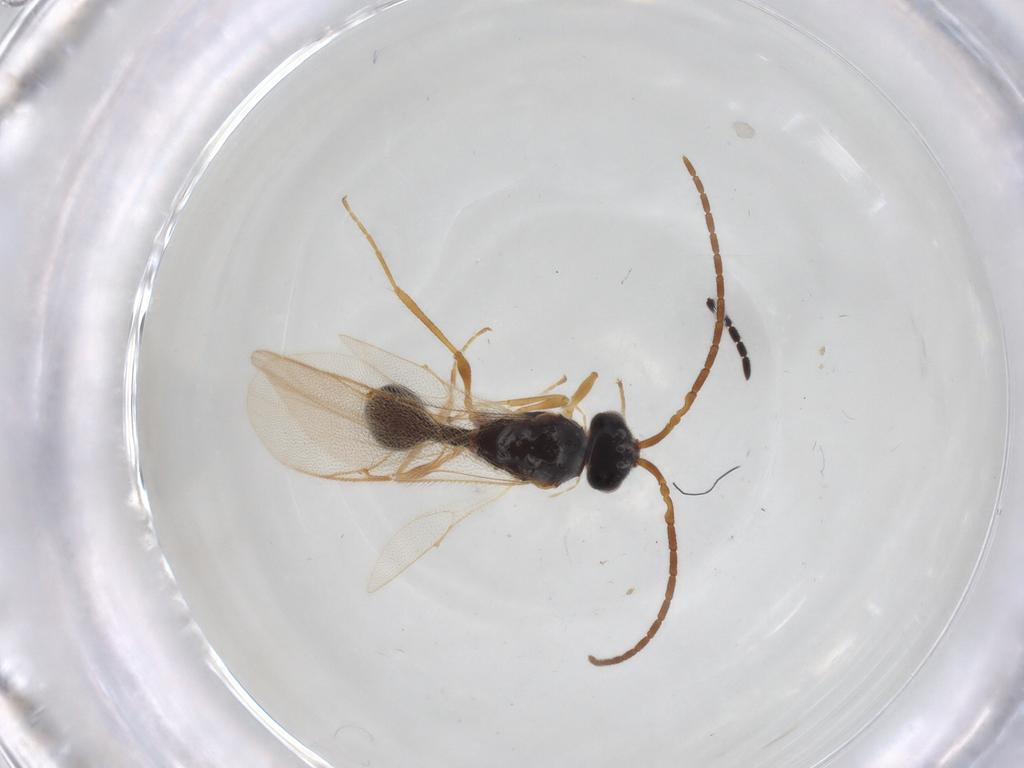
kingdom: Animalia
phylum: Arthropoda
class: Insecta
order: Hymenoptera
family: Diapriidae
